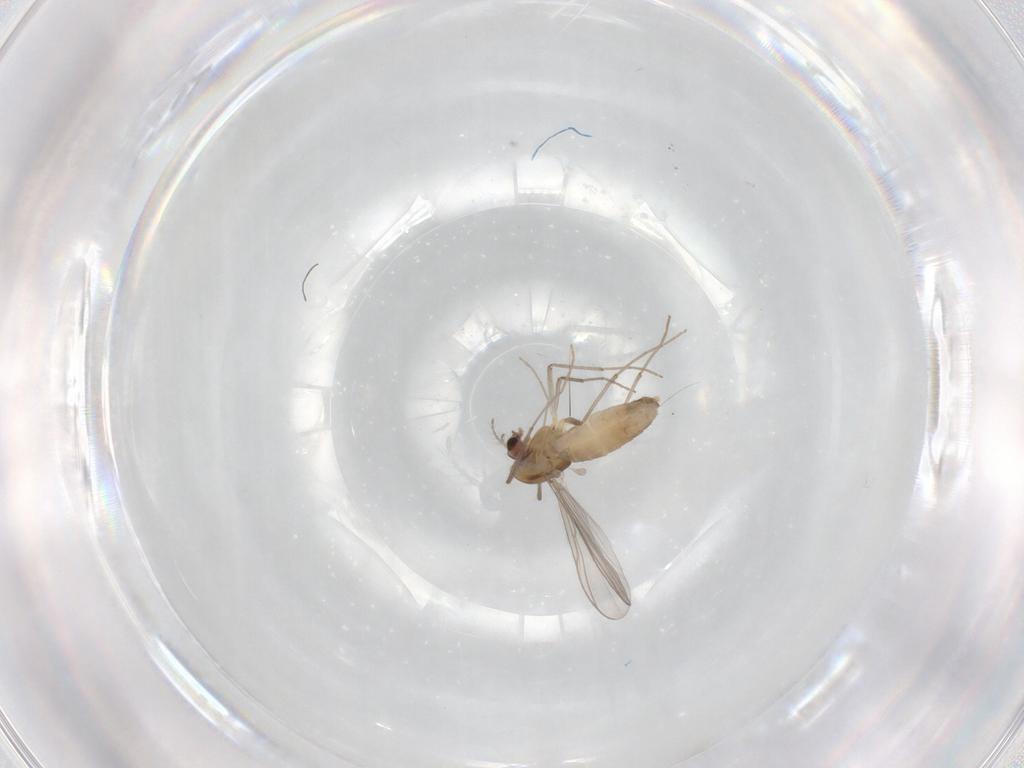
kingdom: Animalia
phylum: Arthropoda
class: Insecta
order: Diptera
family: Chironomidae
